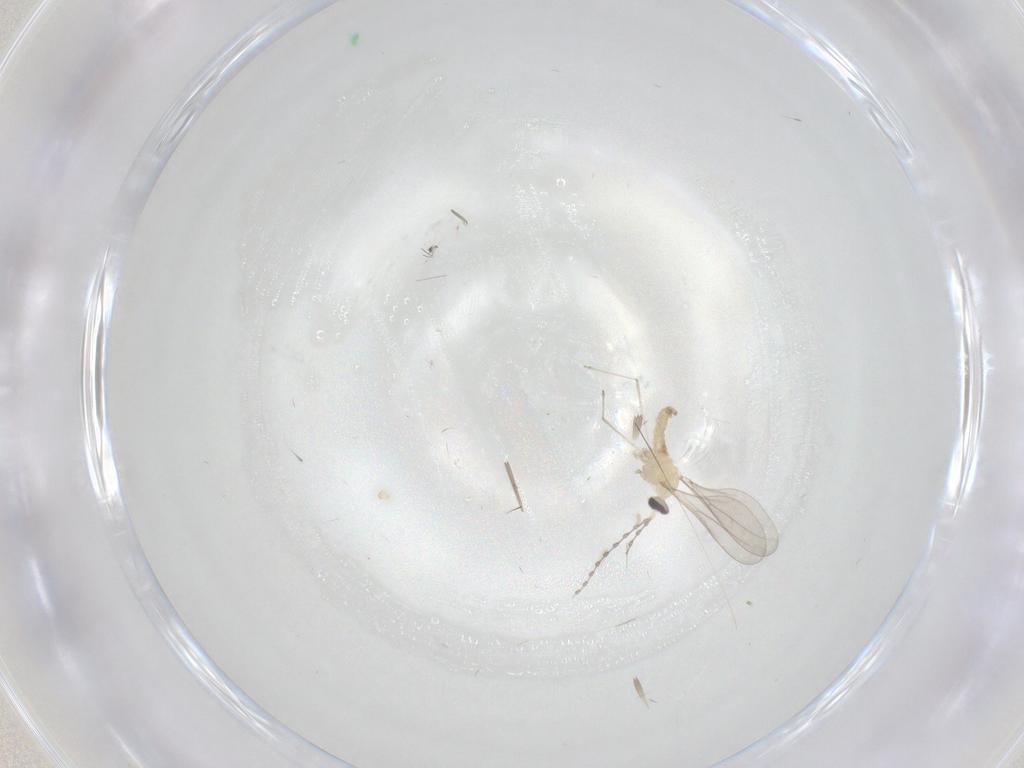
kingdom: Animalia
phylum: Arthropoda
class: Insecta
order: Diptera
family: Cecidomyiidae
